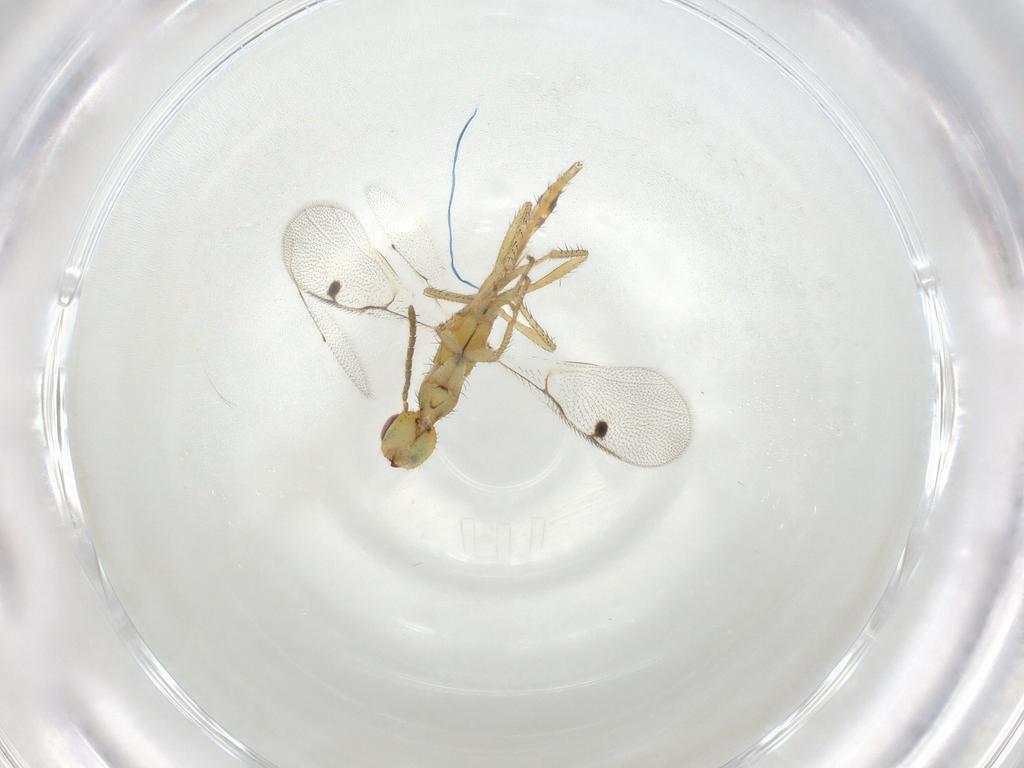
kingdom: Animalia
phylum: Arthropoda
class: Insecta
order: Hymenoptera
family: Megastigmidae
